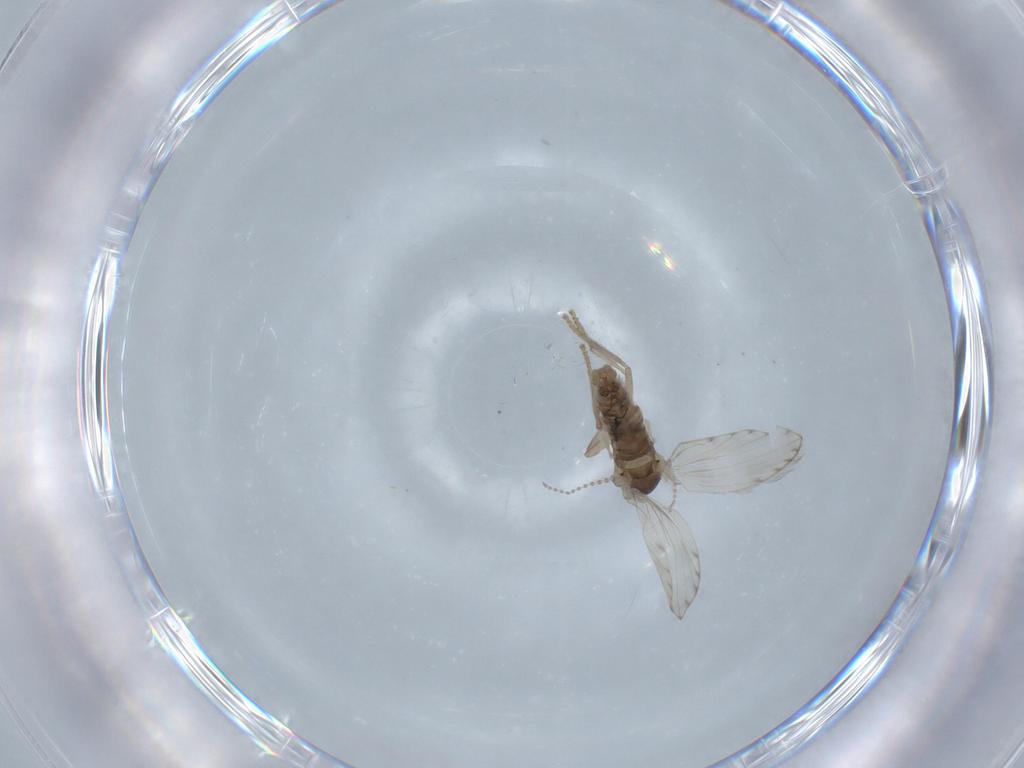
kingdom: Animalia
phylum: Arthropoda
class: Insecta
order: Diptera
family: Psychodidae
